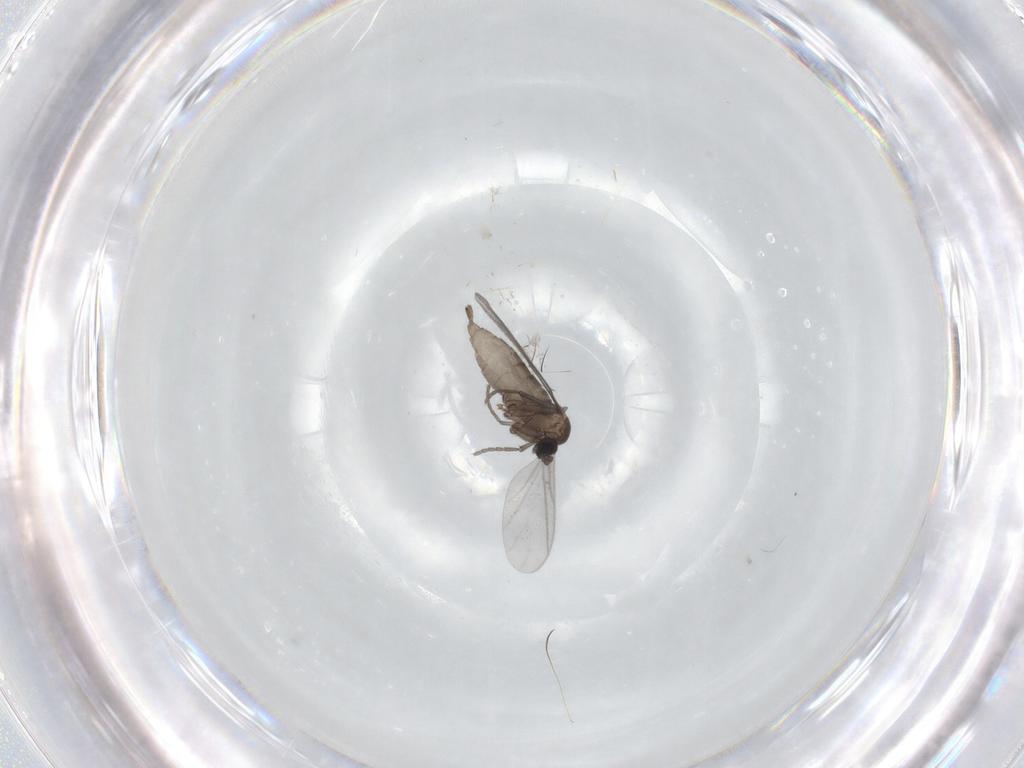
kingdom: Animalia
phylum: Arthropoda
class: Insecta
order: Diptera
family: Sciaridae
